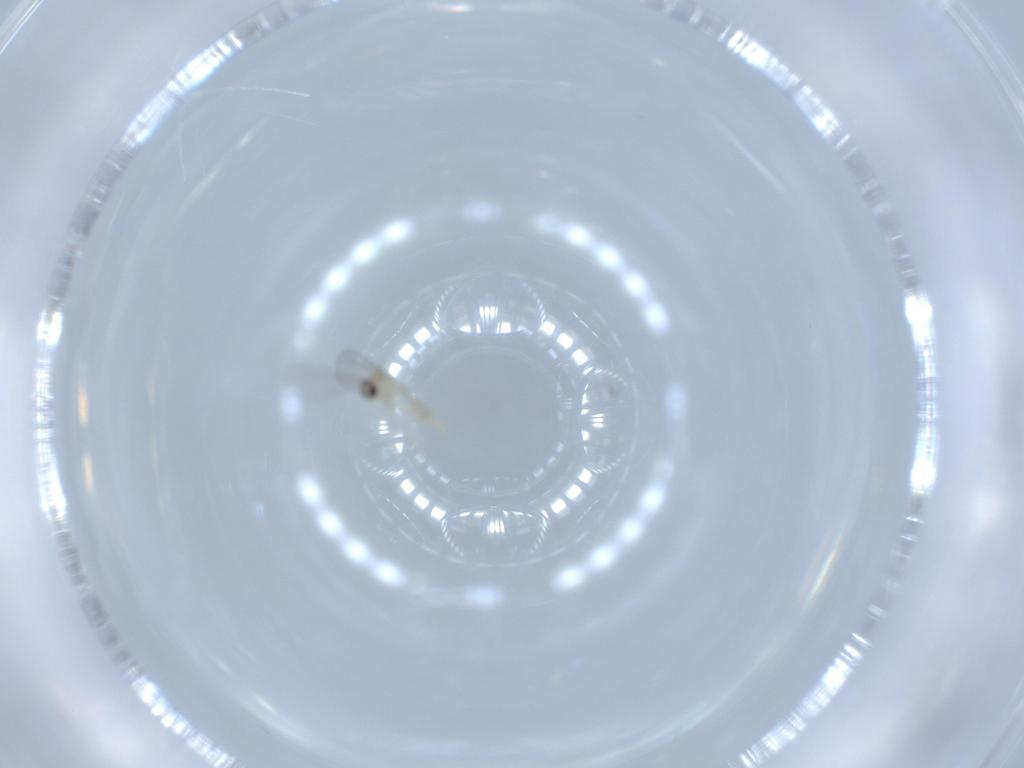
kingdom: Animalia
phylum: Arthropoda
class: Insecta
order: Diptera
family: Cecidomyiidae
